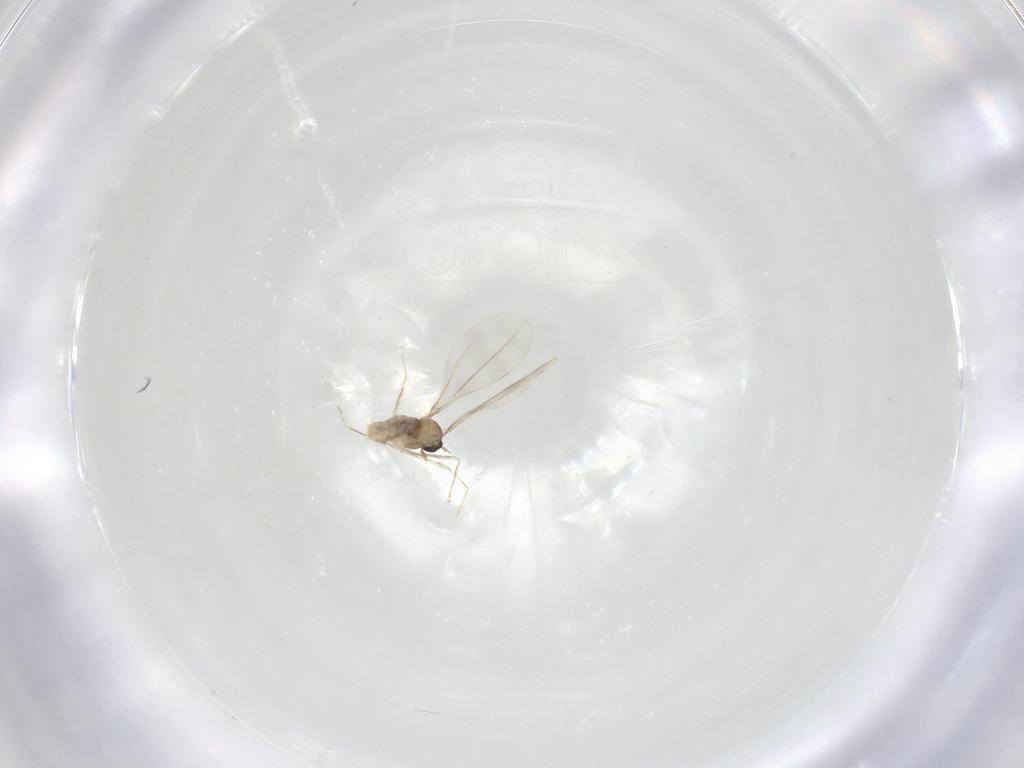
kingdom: Animalia
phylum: Arthropoda
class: Insecta
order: Diptera
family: Cecidomyiidae
